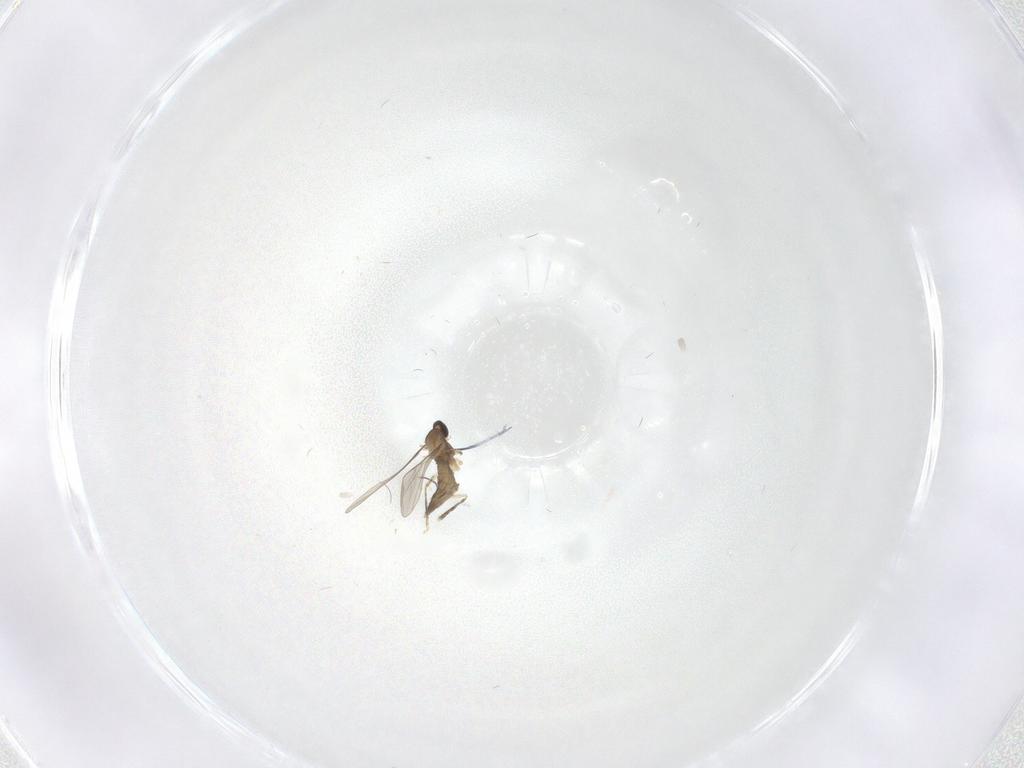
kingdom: Animalia
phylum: Arthropoda
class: Insecta
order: Diptera
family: Cecidomyiidae
